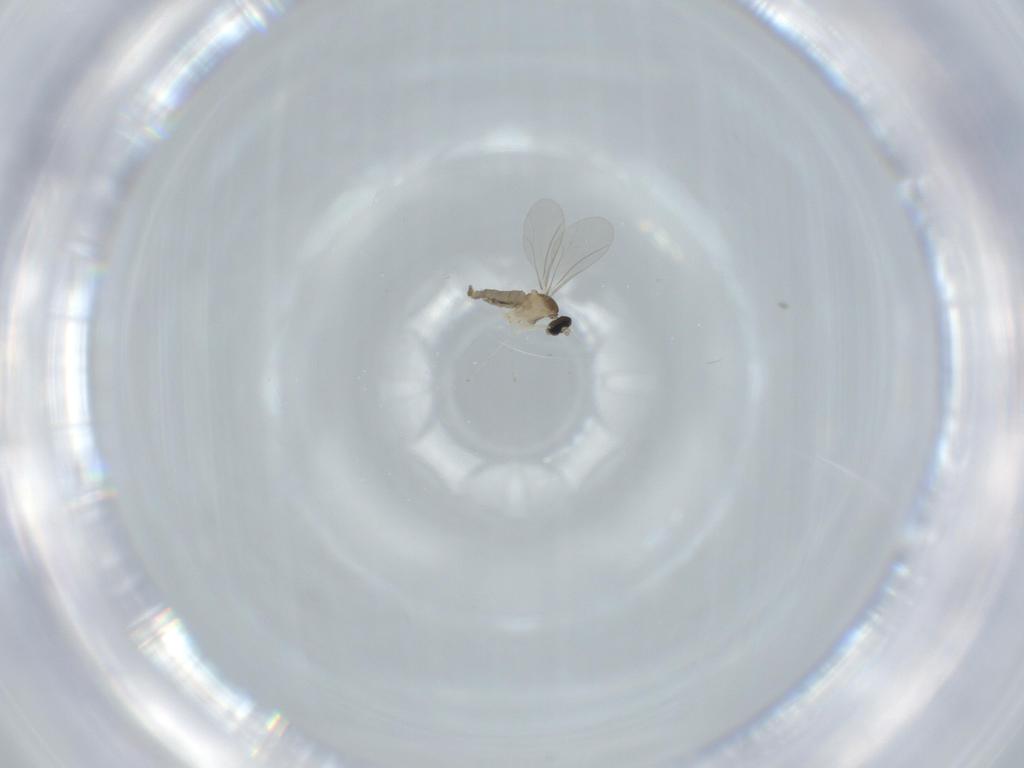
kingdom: Animalia
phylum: Arthropoda
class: Insecta
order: Diptera
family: Cecidomyiidae
